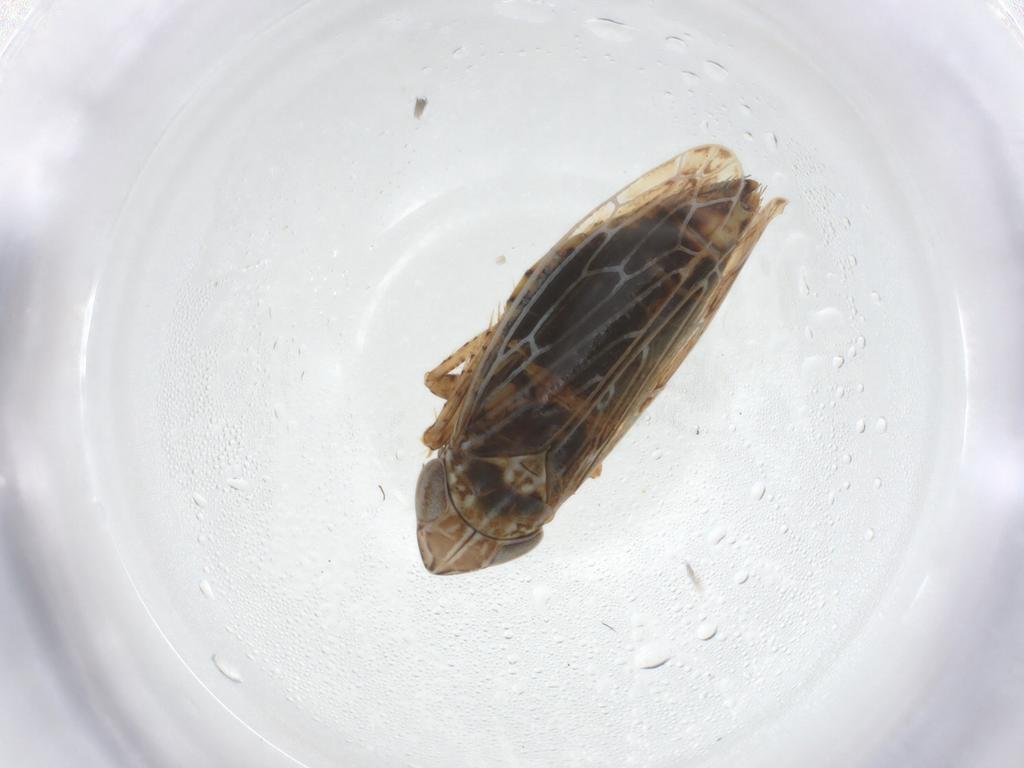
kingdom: Animalia
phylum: Arthropoda
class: Insecta
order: Hemiptera
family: Cicadellidae
